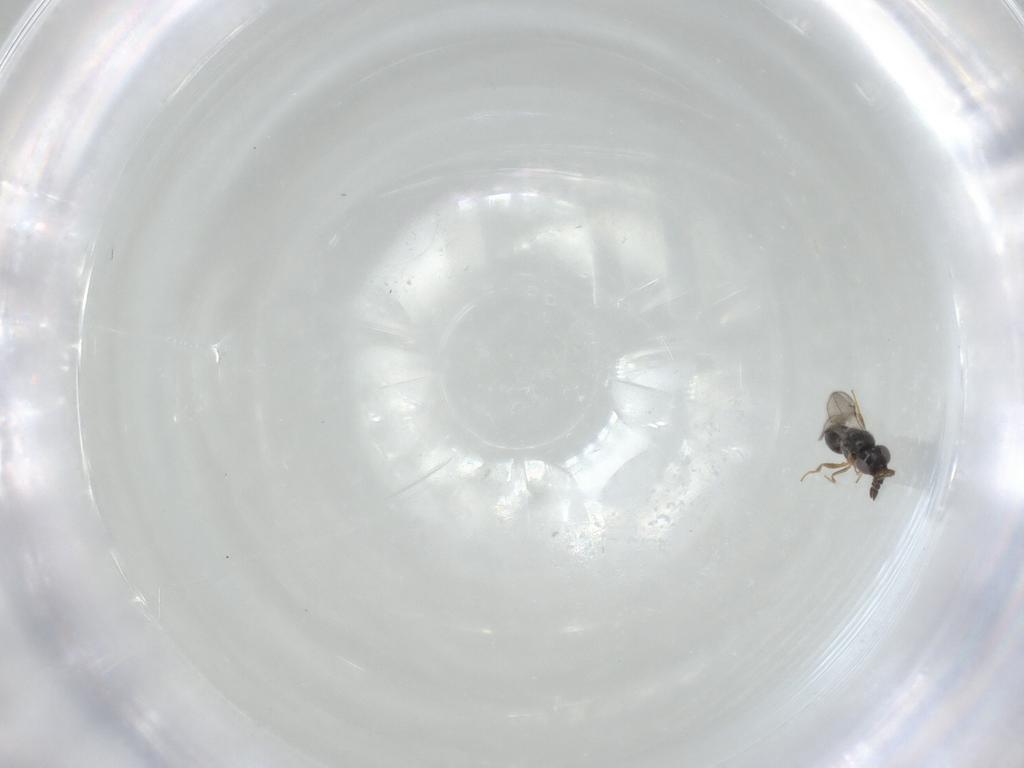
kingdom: Animalia
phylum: Arthropoda
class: Insecta
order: Hymenoptera
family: Ceraphronidae
